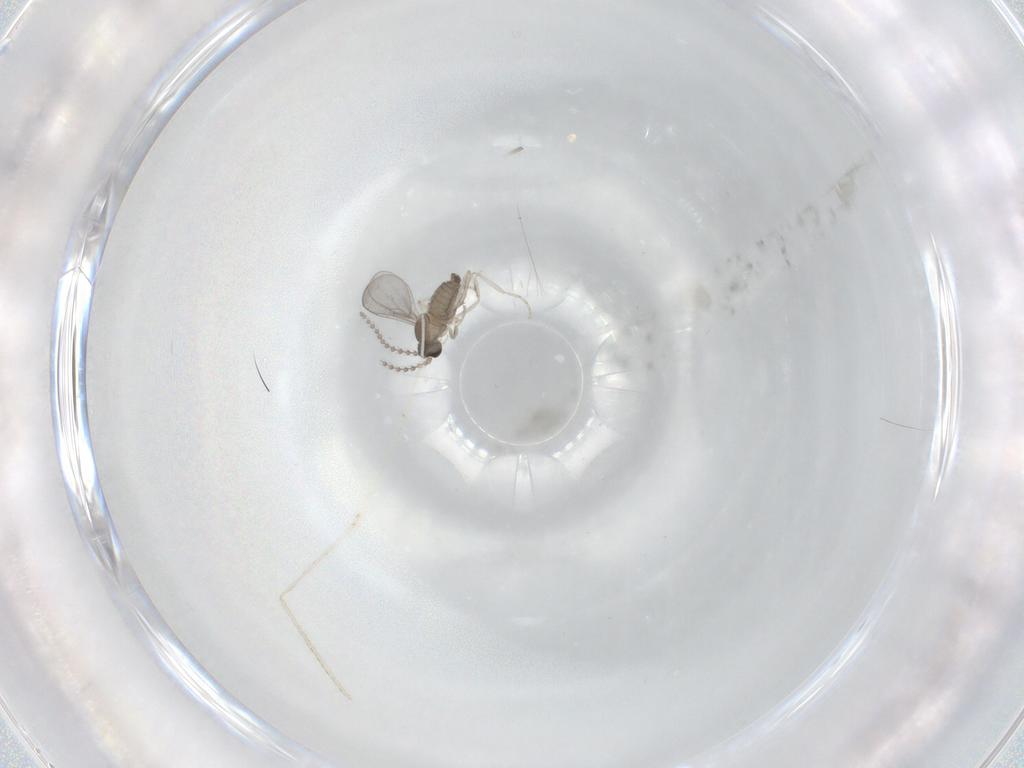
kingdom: Animalia
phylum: Arthropoda
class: Insecta
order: Diptera
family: Cecidomyiidae
